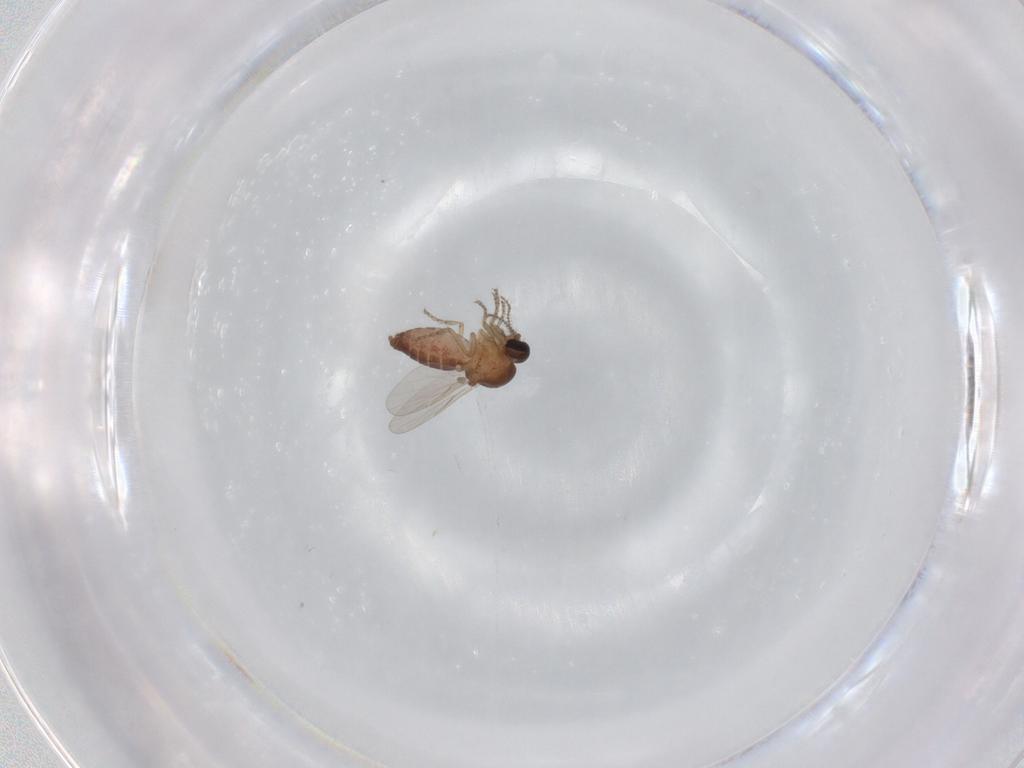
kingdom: Animalia
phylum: Arthropoda
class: Insecta
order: Diptera
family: Ceratopogonidae
